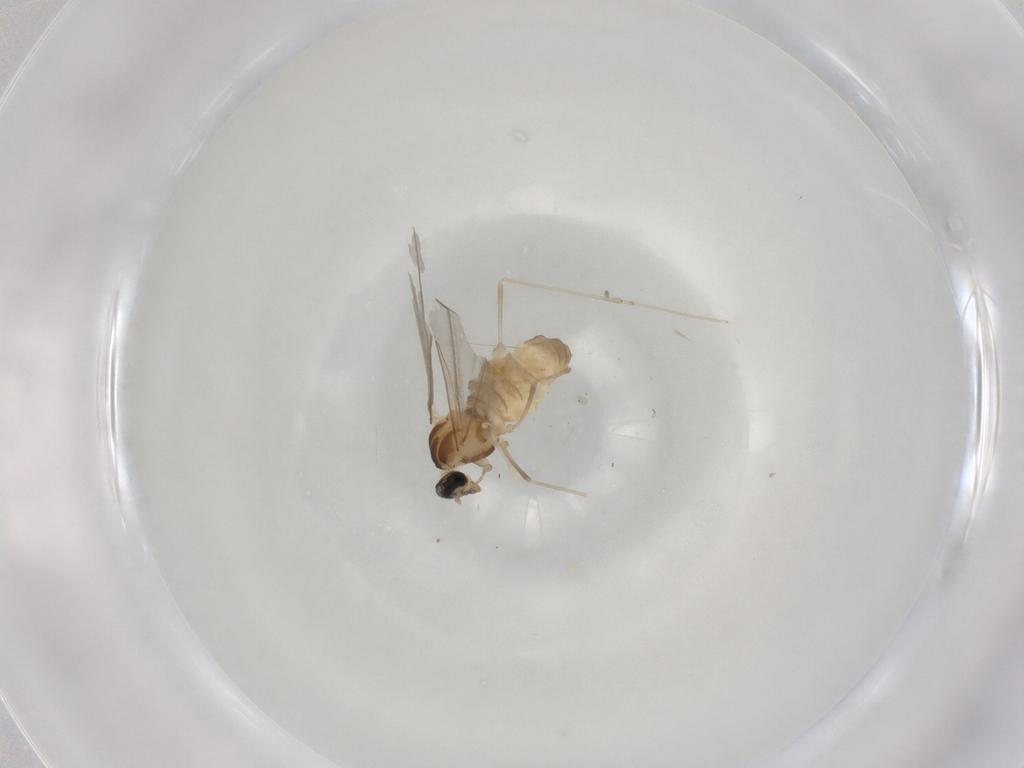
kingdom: Animalia
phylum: Arthropoda
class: Insecta
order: Diptera
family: Cecidomyiidae
